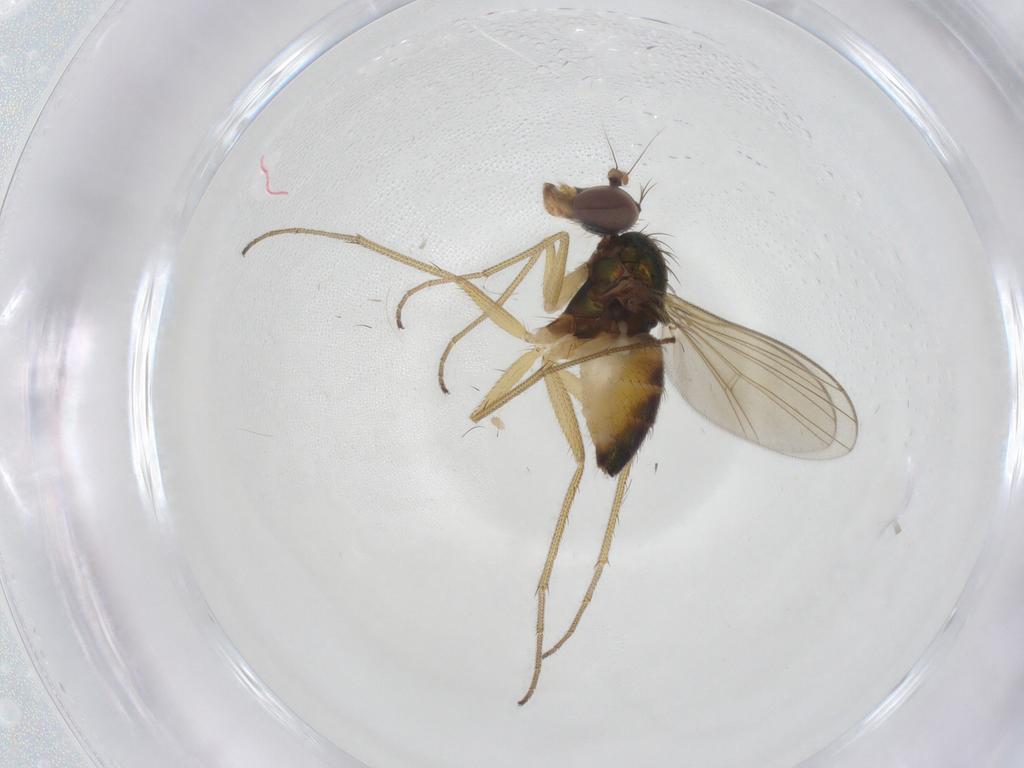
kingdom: Animalia
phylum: Arthropoda
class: Insecta
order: Diptera
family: Dolichopodidae
